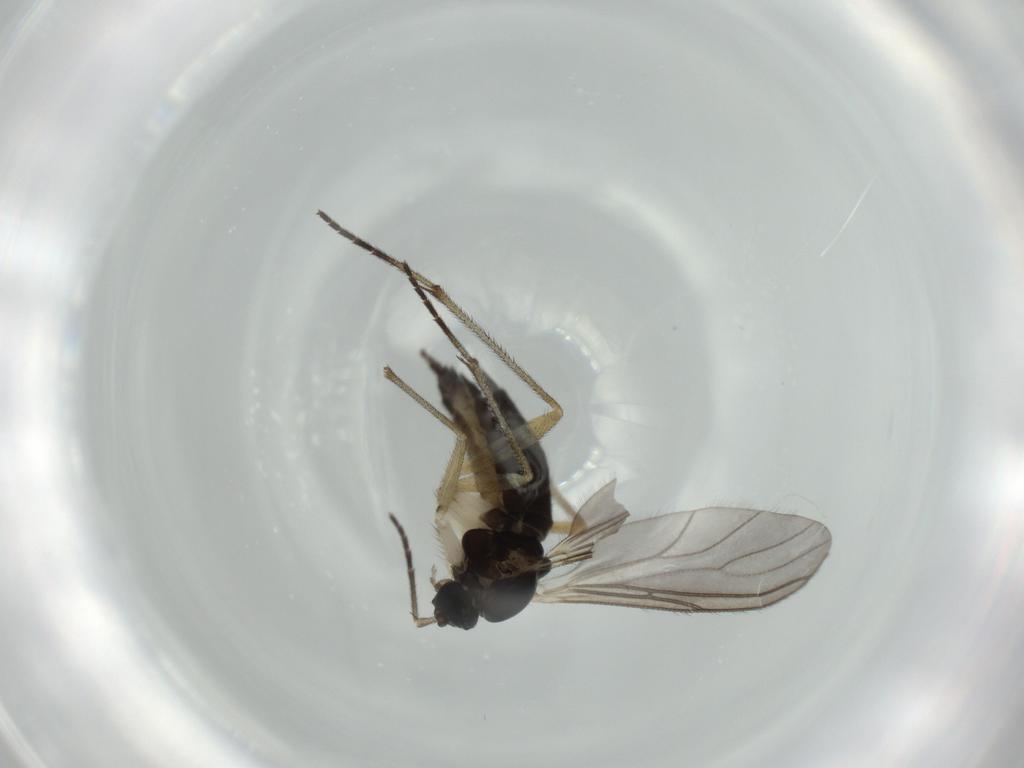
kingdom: Animalia
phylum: Arthropoda
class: Insecta
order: Diptera
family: Sciaridae
